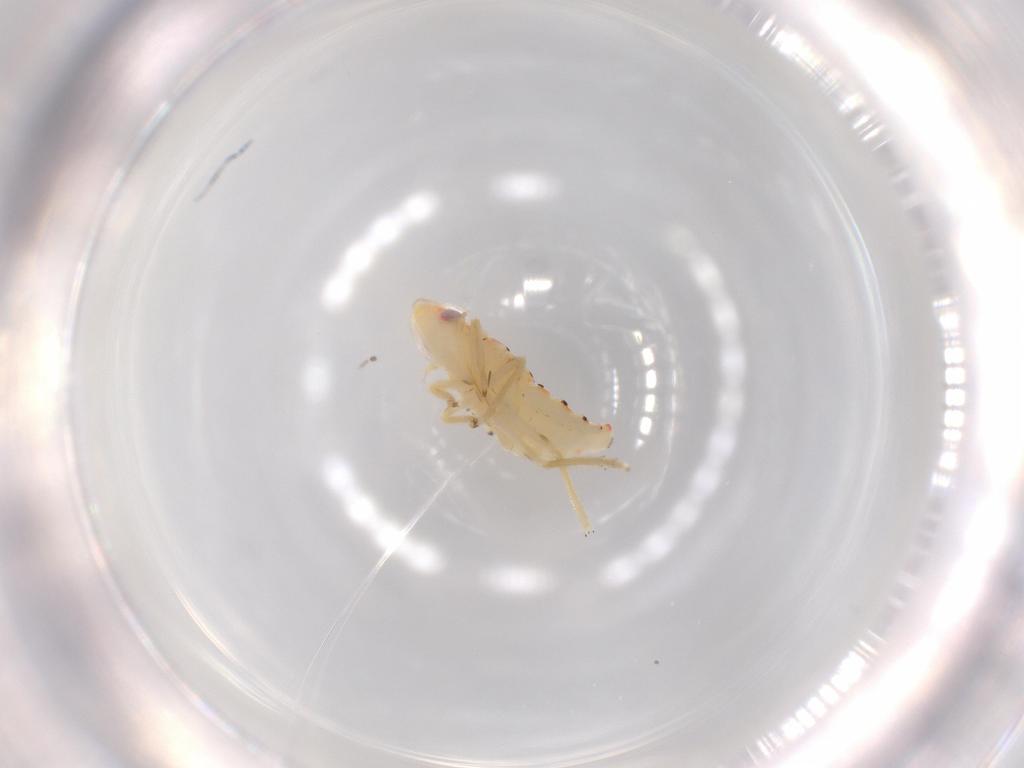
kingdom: Animalia
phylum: Arthropoda
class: Insecta
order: Hemiptera
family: Tropiduchidae
